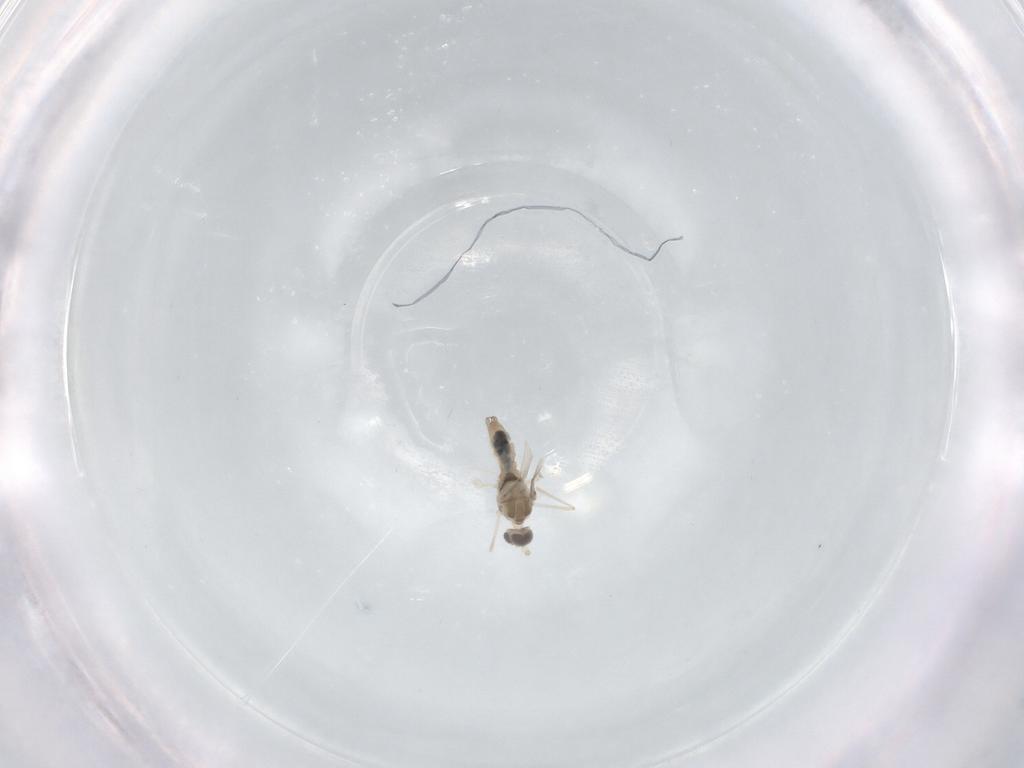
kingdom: Animalia
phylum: Arthropoda
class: Insecta
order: Diptera
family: Cecidomyiidae
